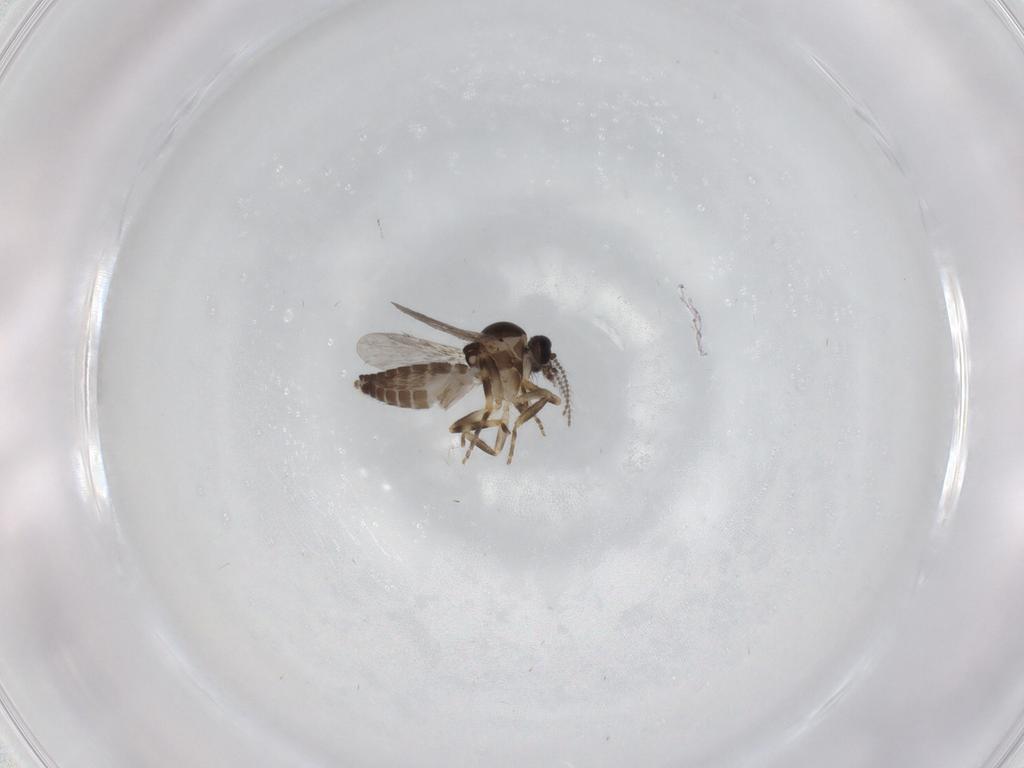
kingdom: Animalia
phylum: Arthropoda
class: Insecta
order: Diptera
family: Ceratopogonidae
